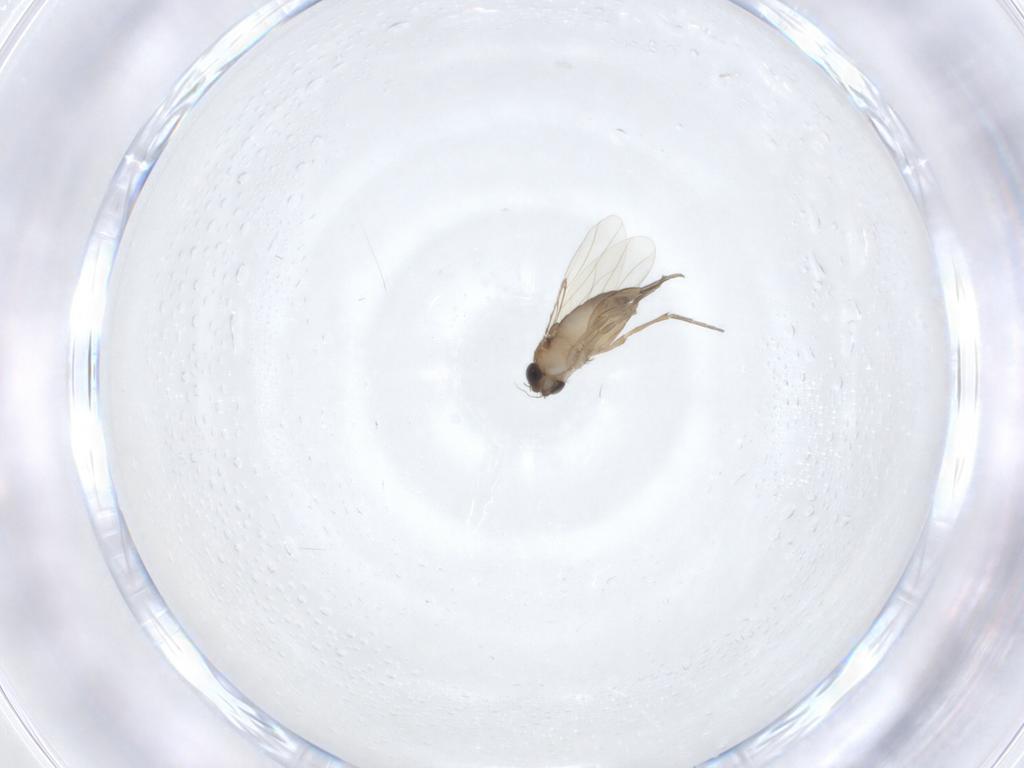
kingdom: Animalia
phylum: Arthropoda
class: Insecta
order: Diptera
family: Phoridae
